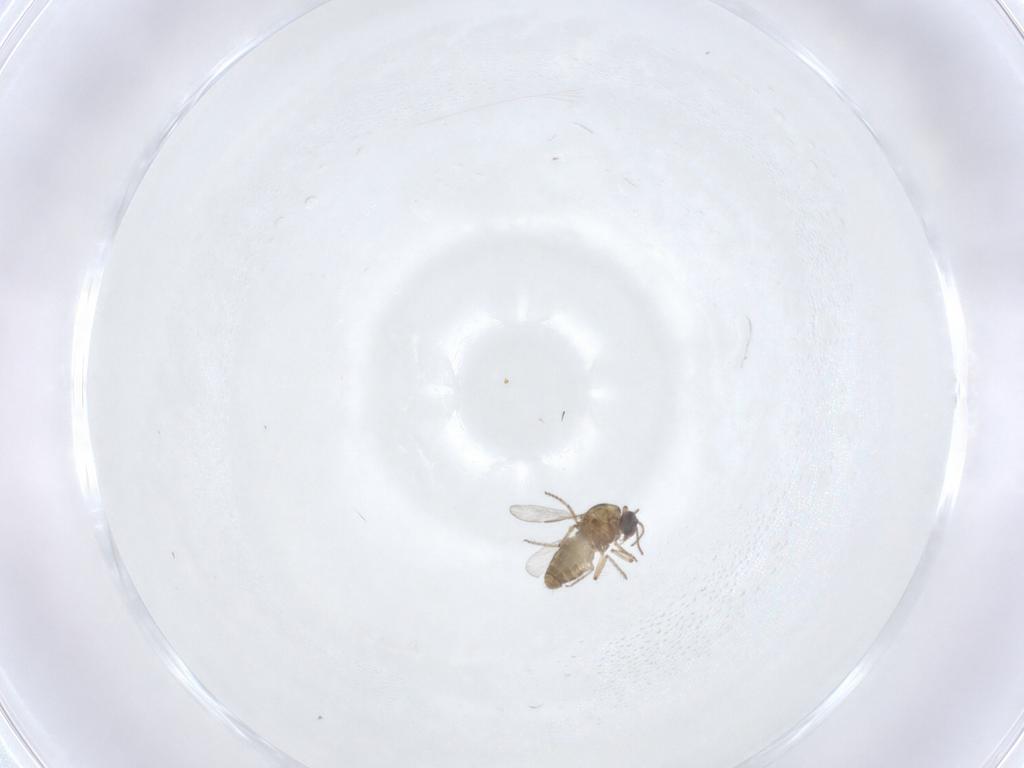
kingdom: Animalia
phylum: Arthropoda
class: Insecta
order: Diptera
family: Ceratopogonidae
